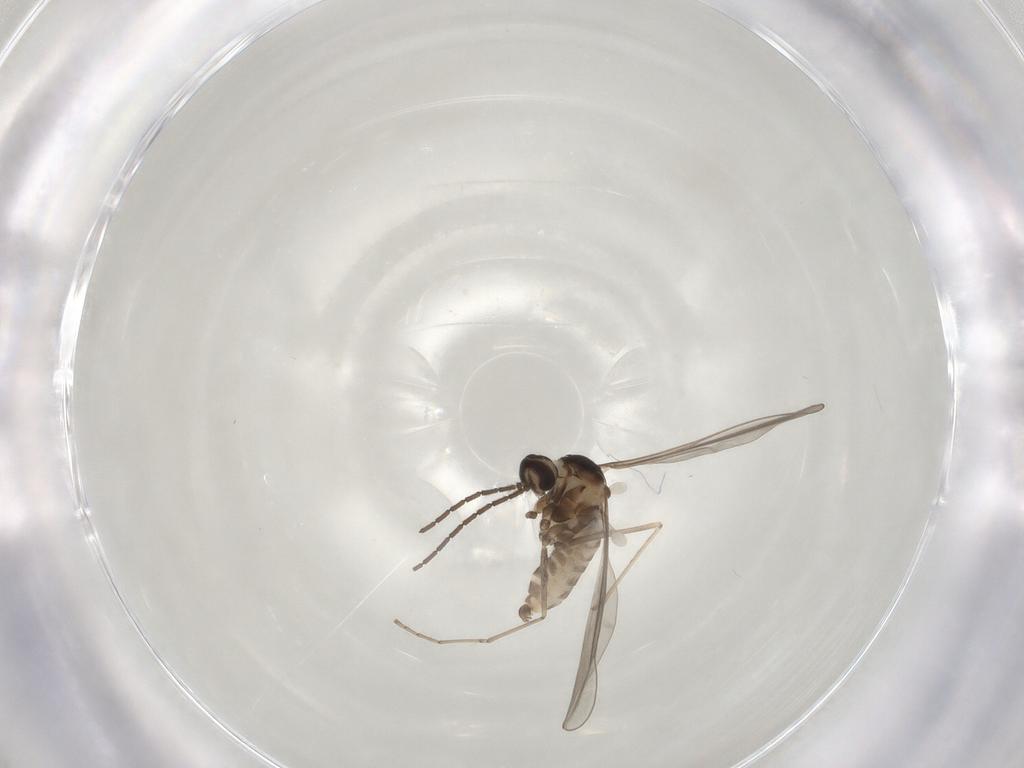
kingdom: Animalia
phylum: Arthropoda
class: Insecta
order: Diptera
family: Cecidomyiidae
